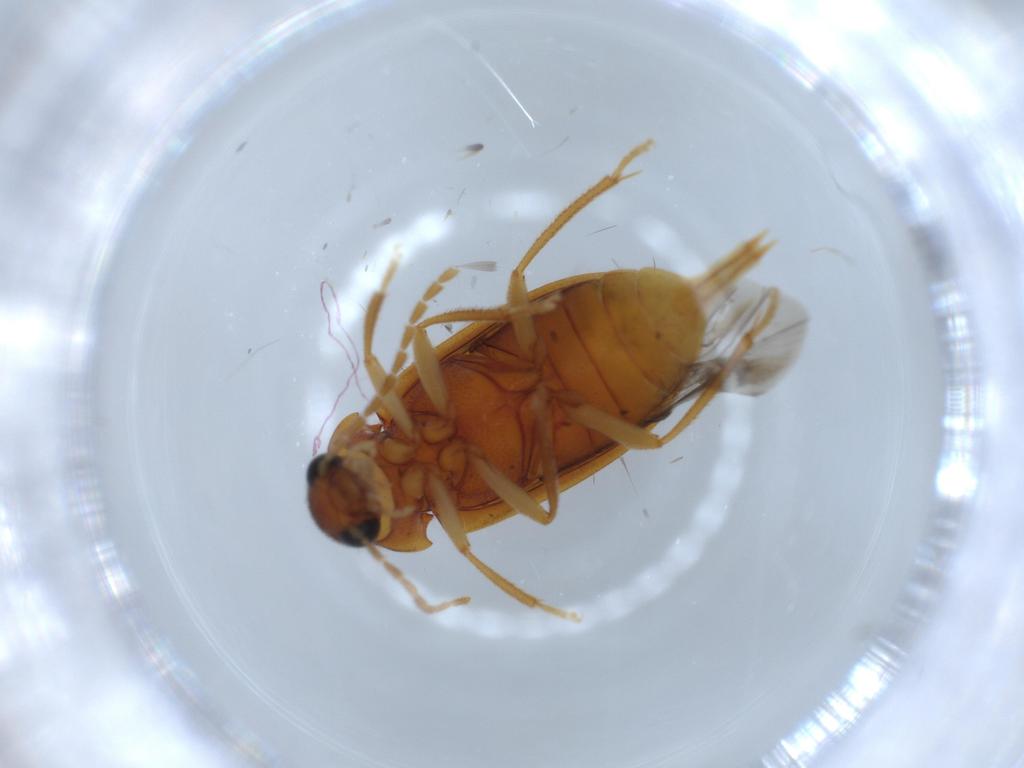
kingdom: Animalia
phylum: Arthropoda
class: Insecta
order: Coleoptera
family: Ptilodactylidae
